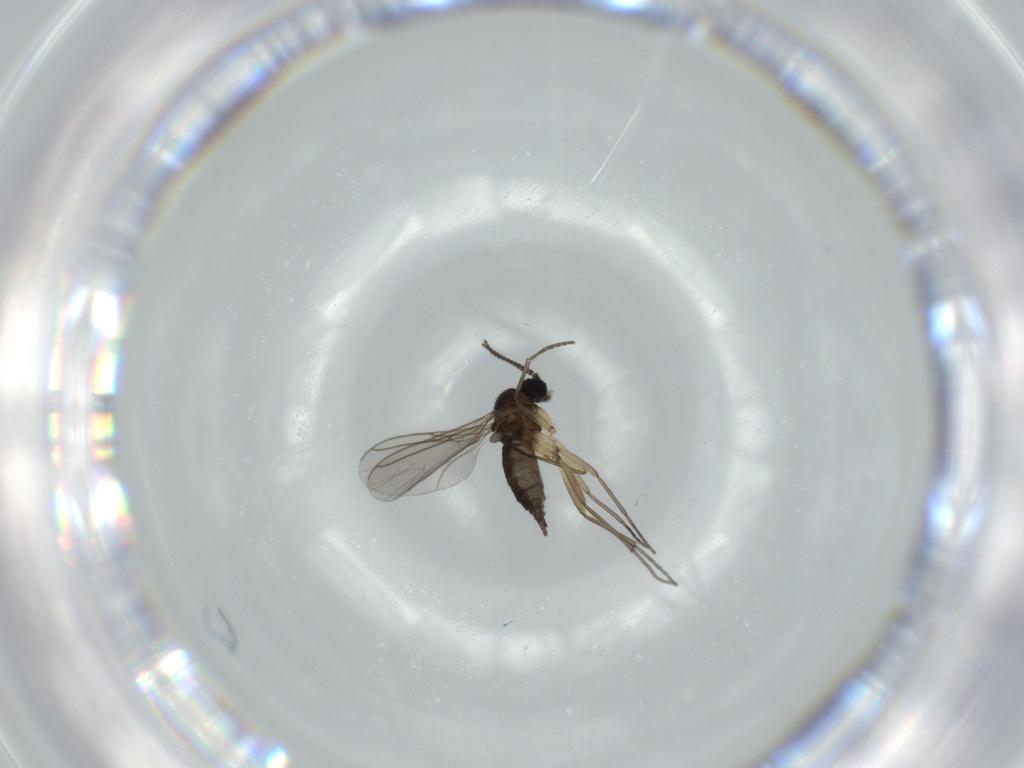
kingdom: Animalia
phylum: Arthropoda
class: Insecta
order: Diptera
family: Sciaridae
